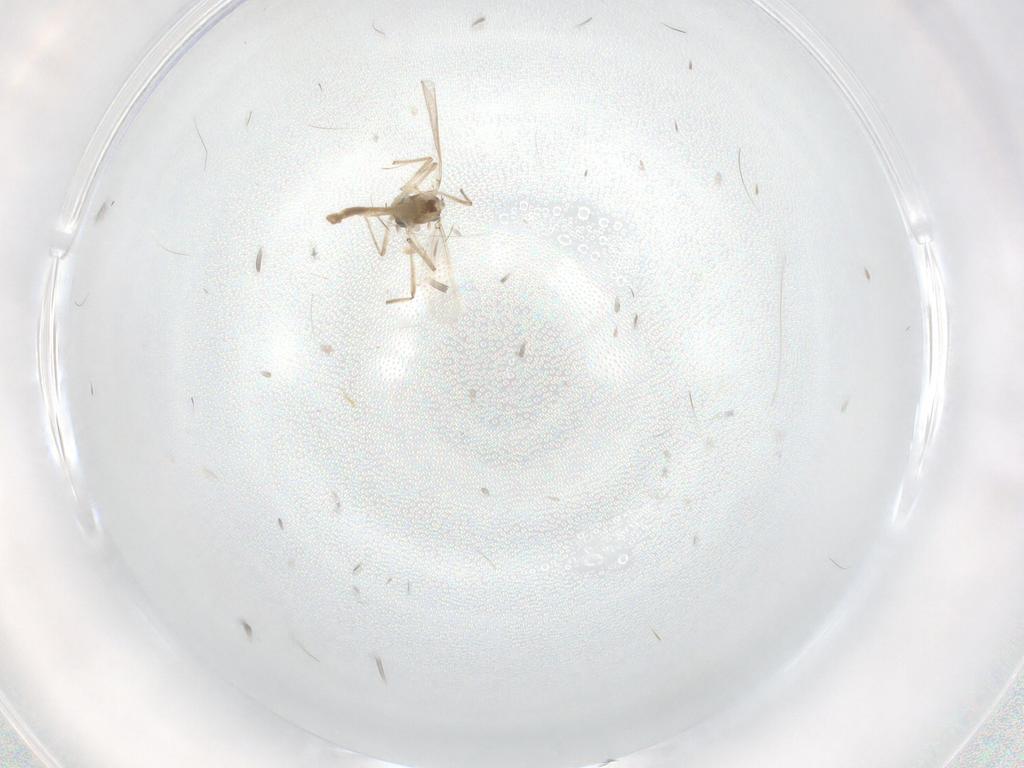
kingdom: Animalia
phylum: Arthropoda
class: Insecta
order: Diptera
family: Chironomidae
